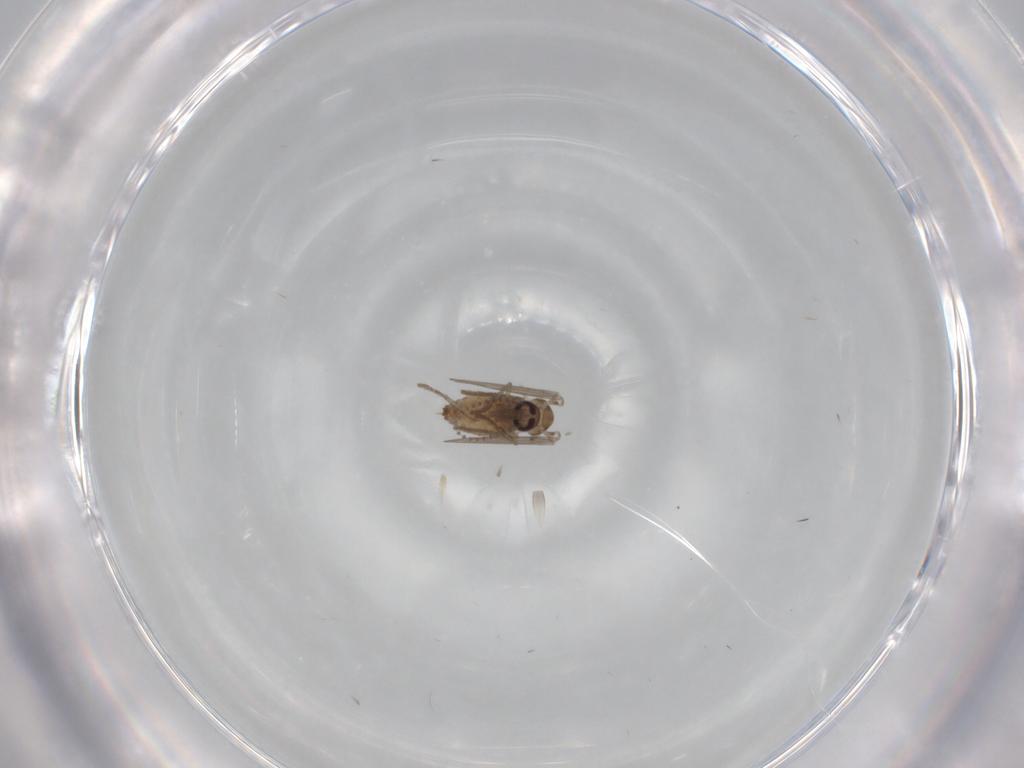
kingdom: Animalia
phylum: Arthropoda
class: Insecta
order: Diptera
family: Psychodidae
